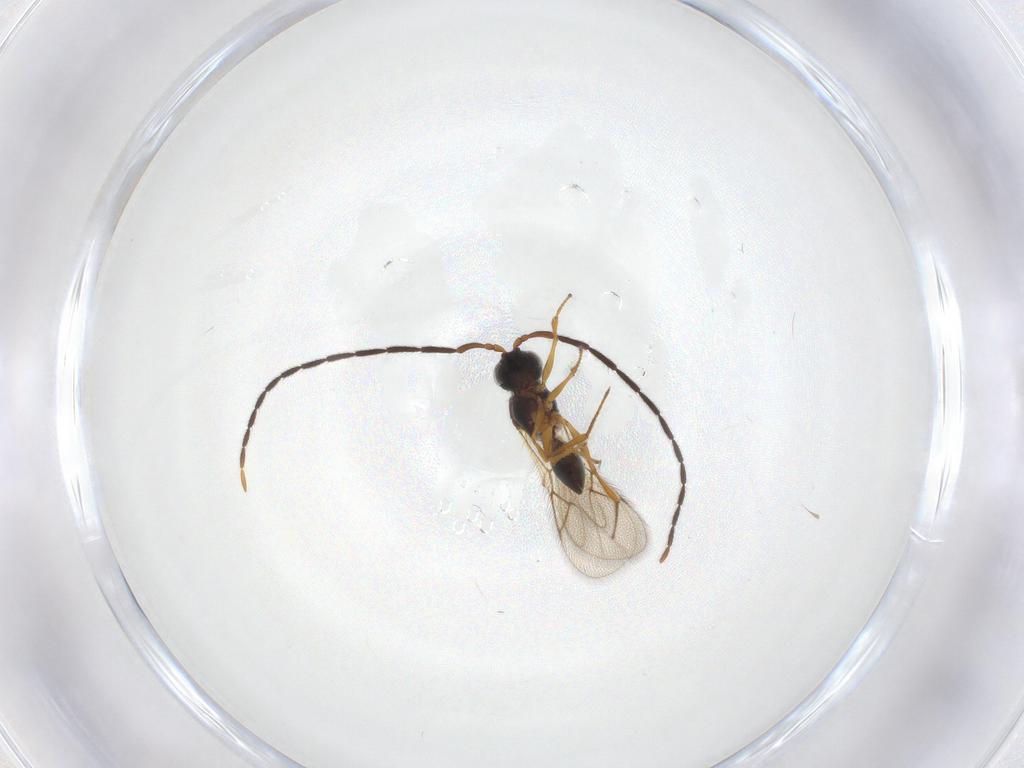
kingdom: Animalia
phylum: Arthropoda
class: Insecta
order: Hymenoptera
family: Figitidae
